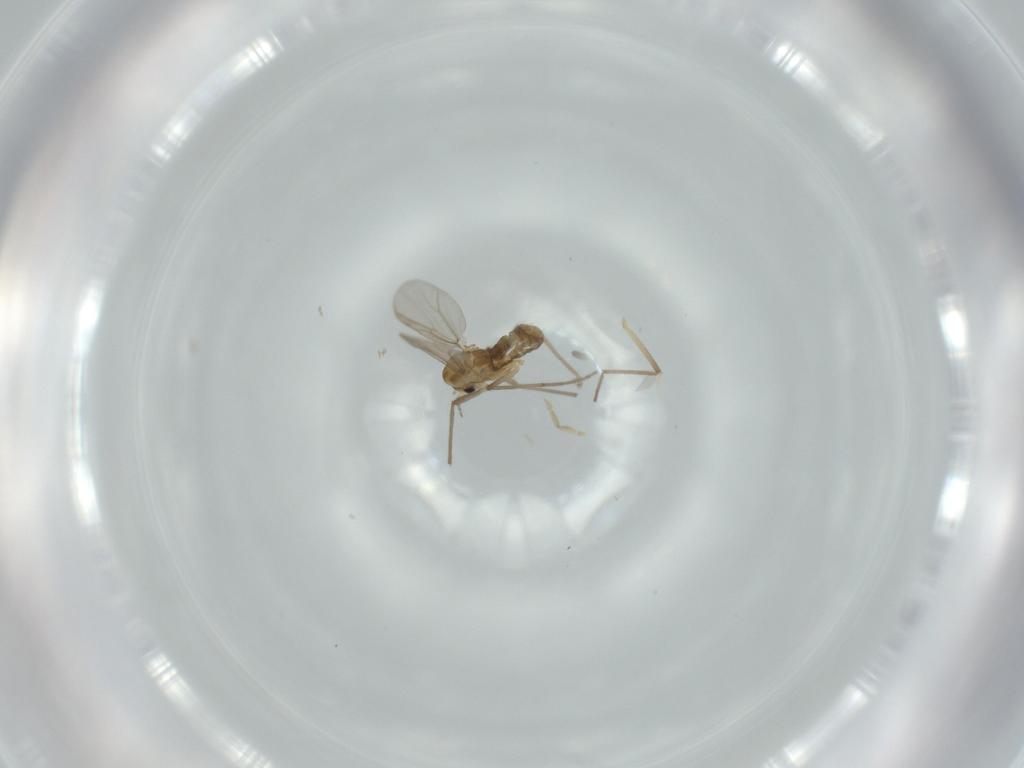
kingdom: Animalia
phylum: Arthropoda
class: Insecta
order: Diptera
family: Chironomidae
